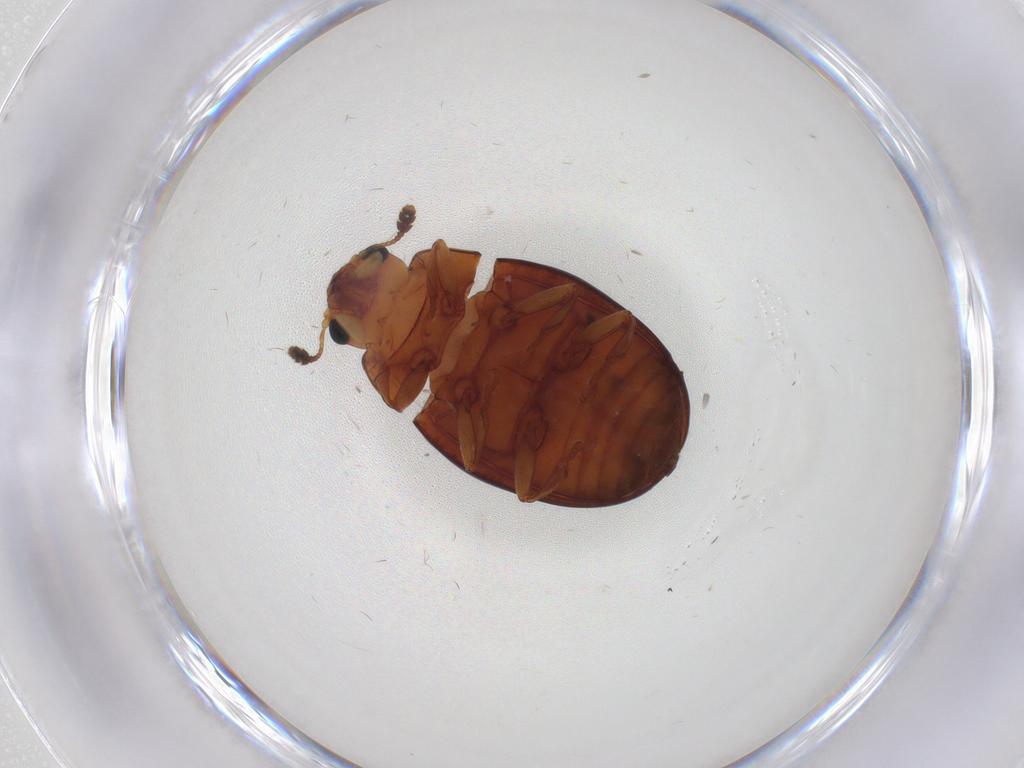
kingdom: Animalia
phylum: Arthropoda
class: Insecta
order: Coleoptera
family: Erotylidae
